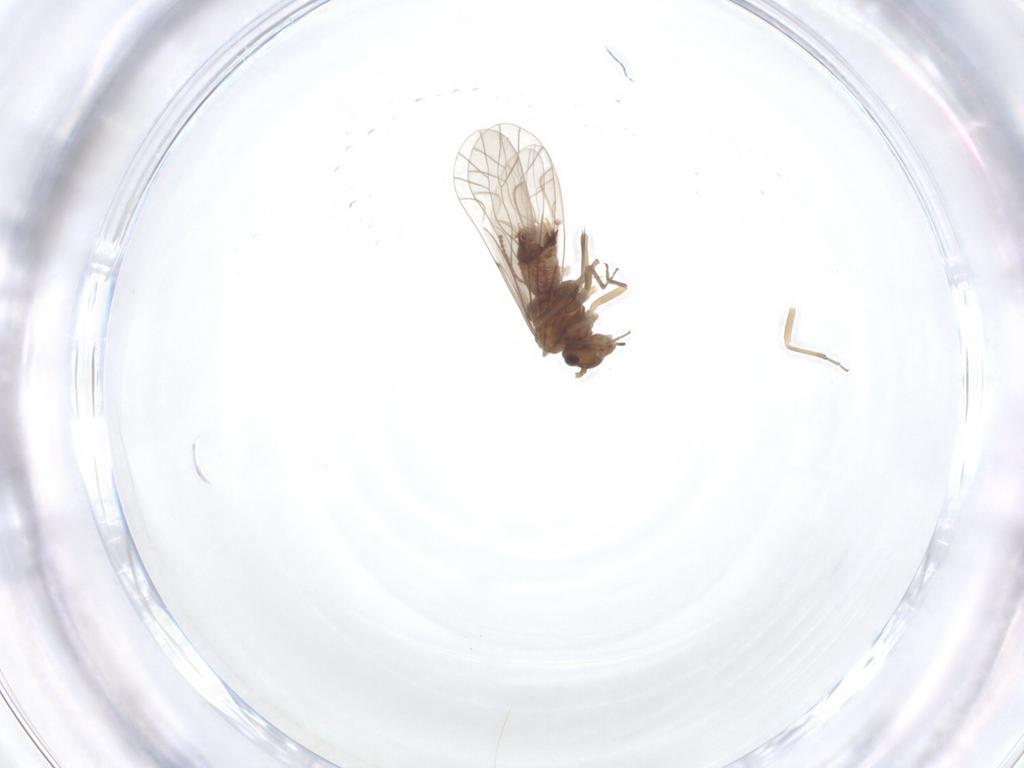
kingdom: Animalia
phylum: Arthropoda
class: Insecta
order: Psocodea
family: Lachesillidae
